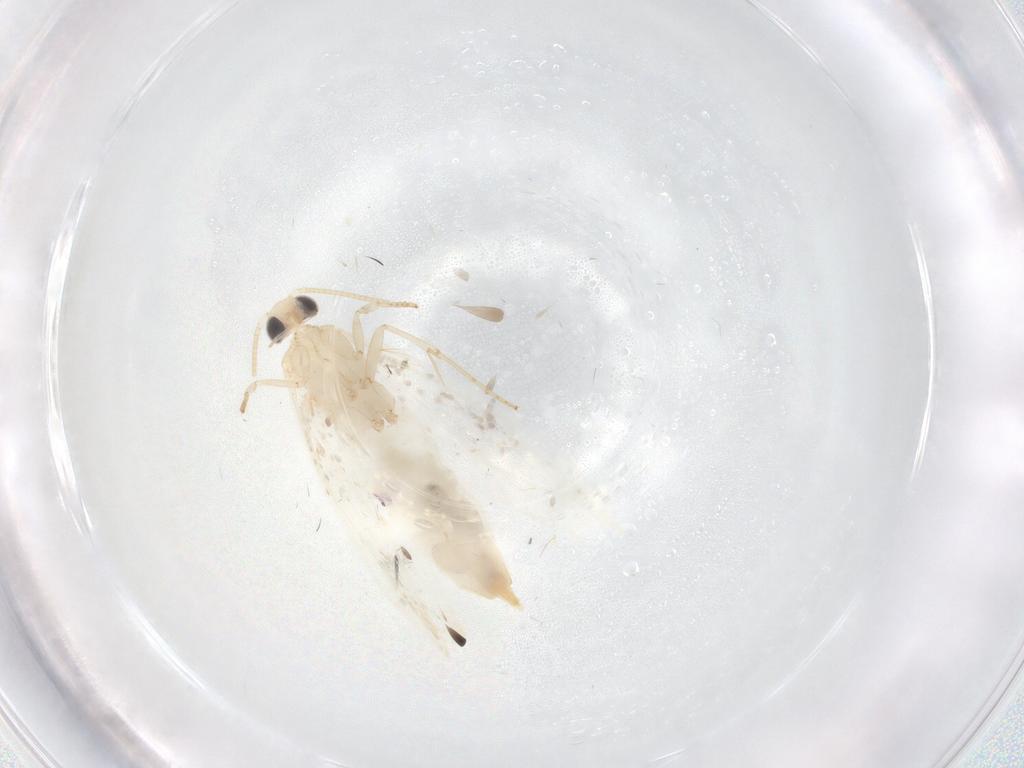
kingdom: Animalia
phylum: Arthropoda
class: Insecta
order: Lepidoptera
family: Tineidae
